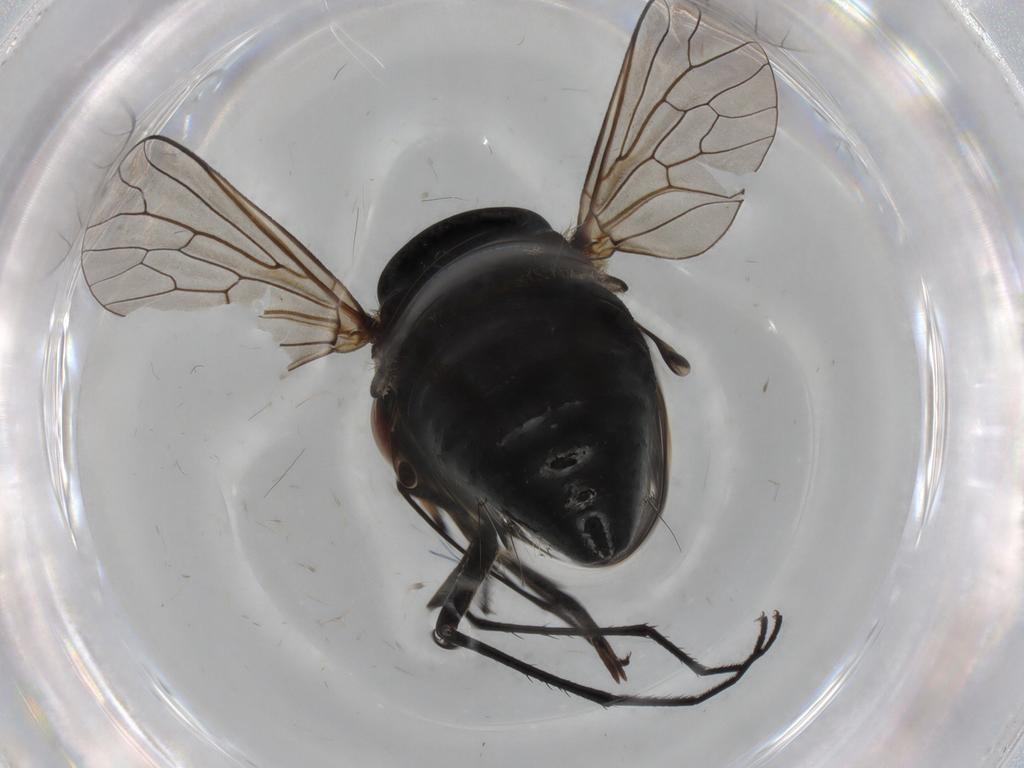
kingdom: Animalia
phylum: Arthropoda
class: Insecta
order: Diptera
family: Bombyliidae
